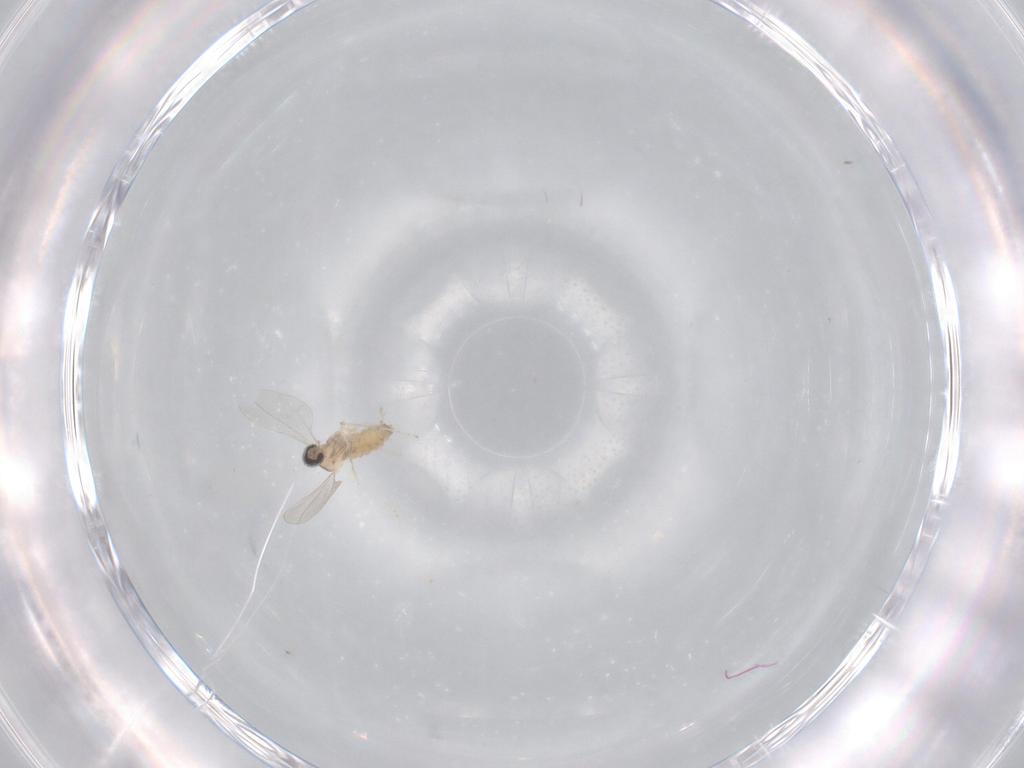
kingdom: Animalia
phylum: Arthropoda
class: Insecta
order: Diptera
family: Cecidomyiidae
